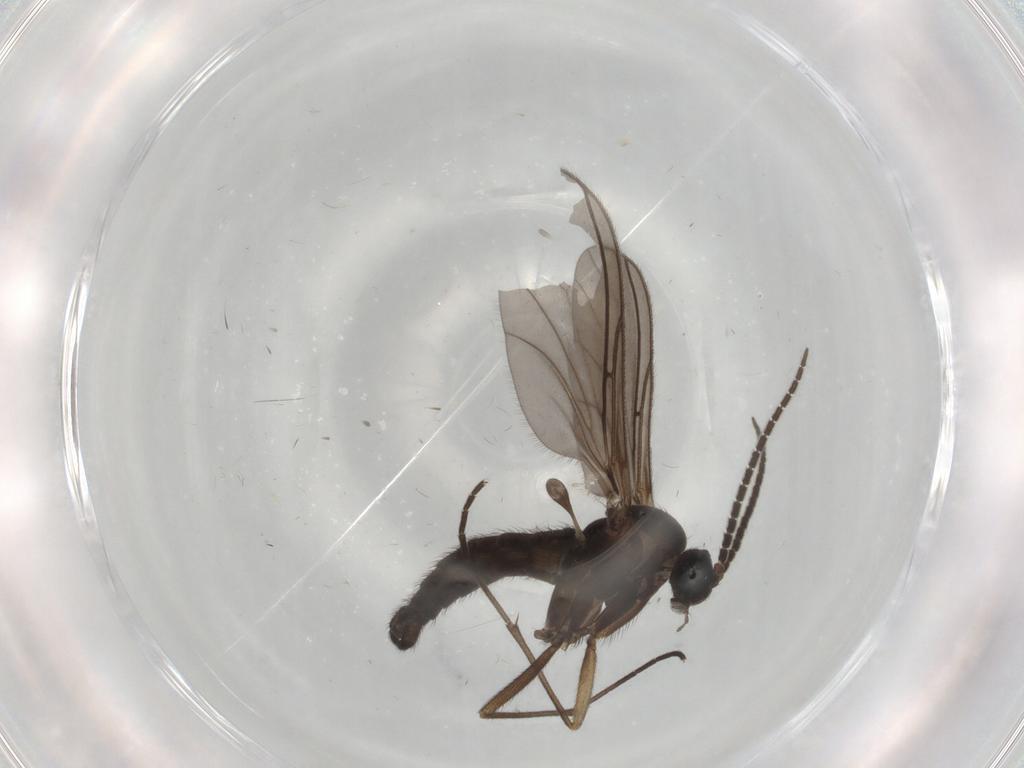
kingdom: Animalia
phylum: Arthropoda
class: Insecta
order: Diptera
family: Sciaridae
